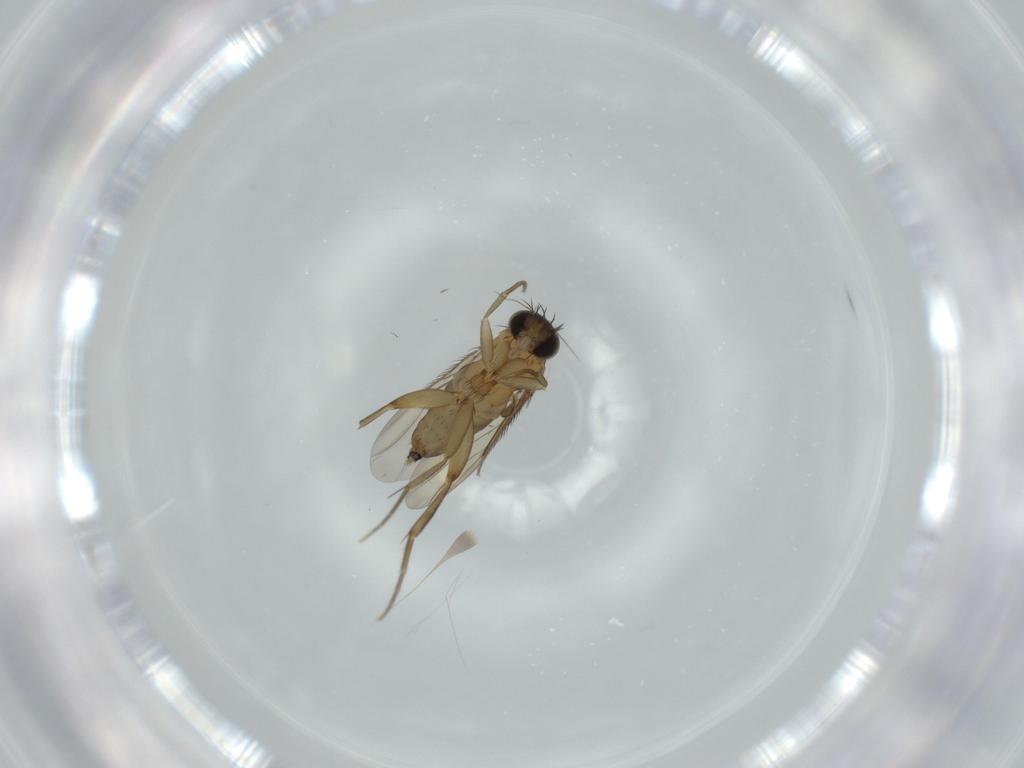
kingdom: Animalia
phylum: Arthropoda
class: Insecta
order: Diptera
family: Phoridae
